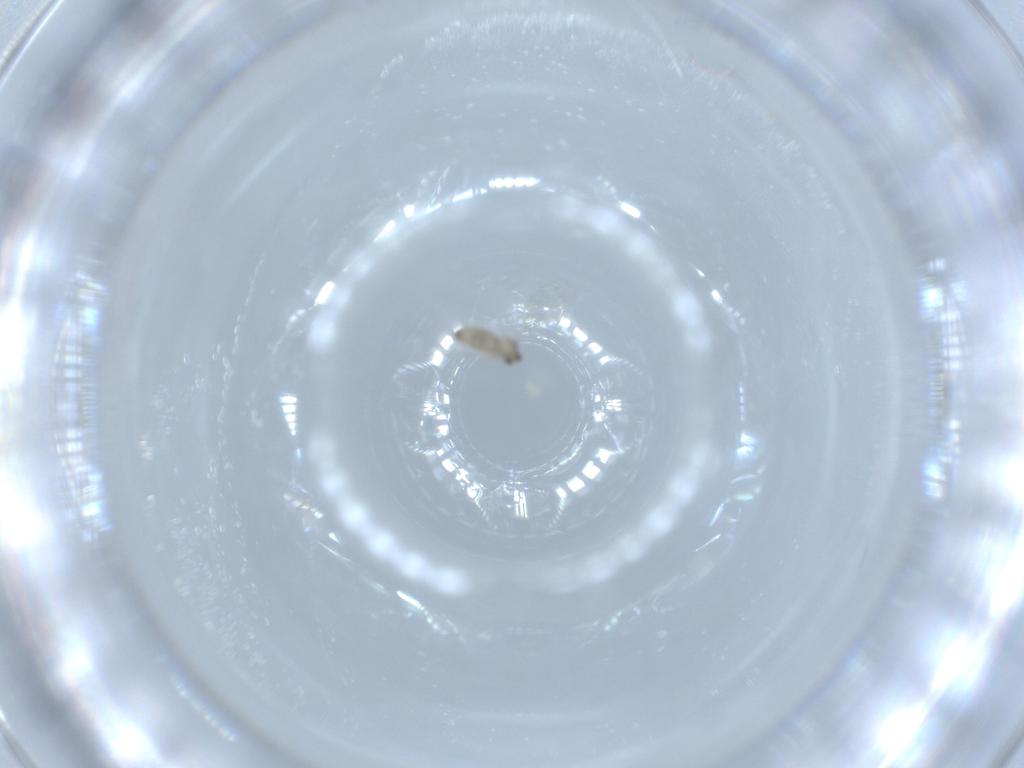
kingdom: Animalia
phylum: Arthropoda
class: Insecta
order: Diptera
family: Cecidomyiidae
